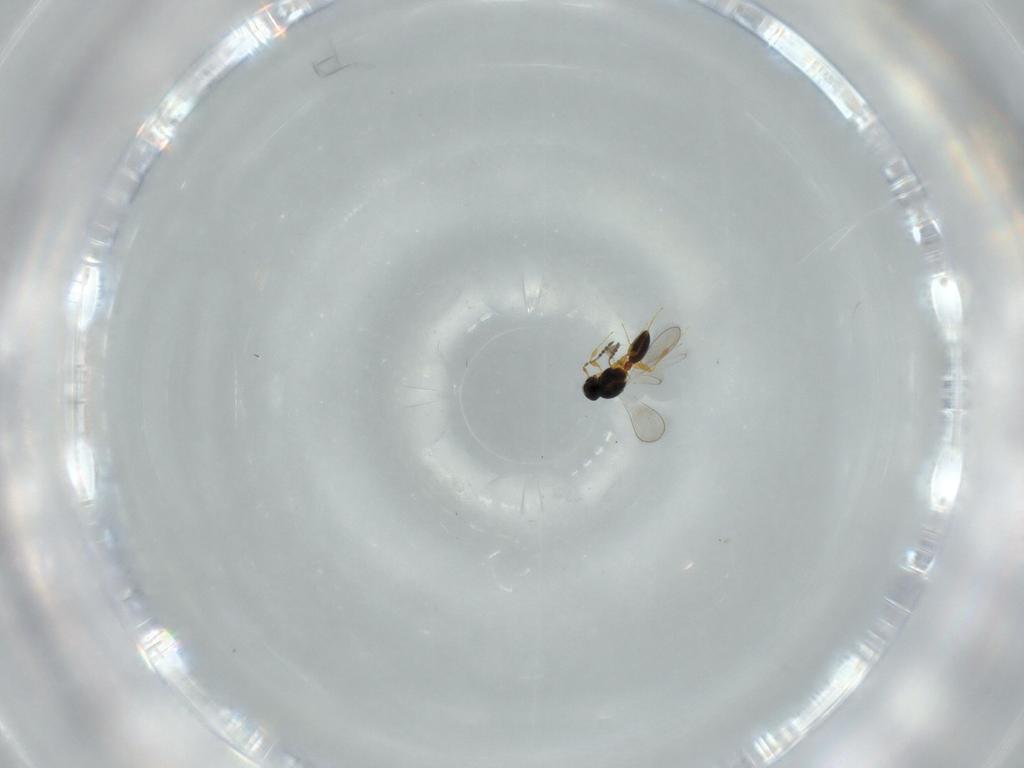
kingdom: Animalia
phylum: Arthropoda
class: Insecta
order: Hymenoptera
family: Platygastridae
